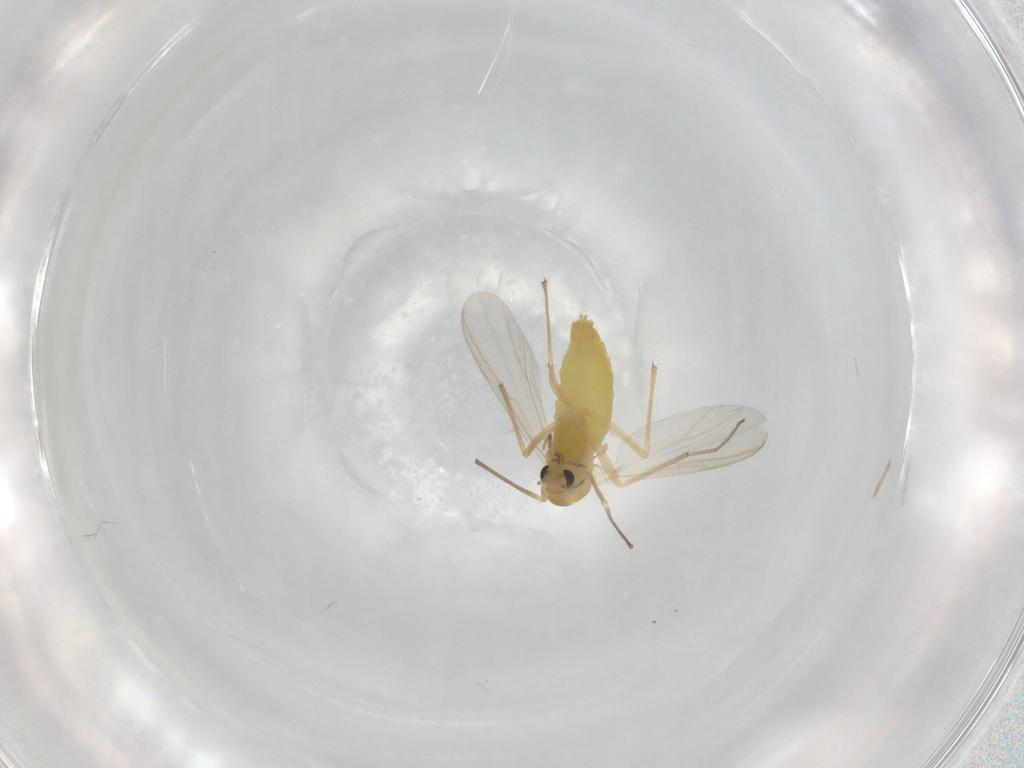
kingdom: Animalia
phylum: Arthropoda
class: Insecta
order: Diptera
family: Chironomidae
